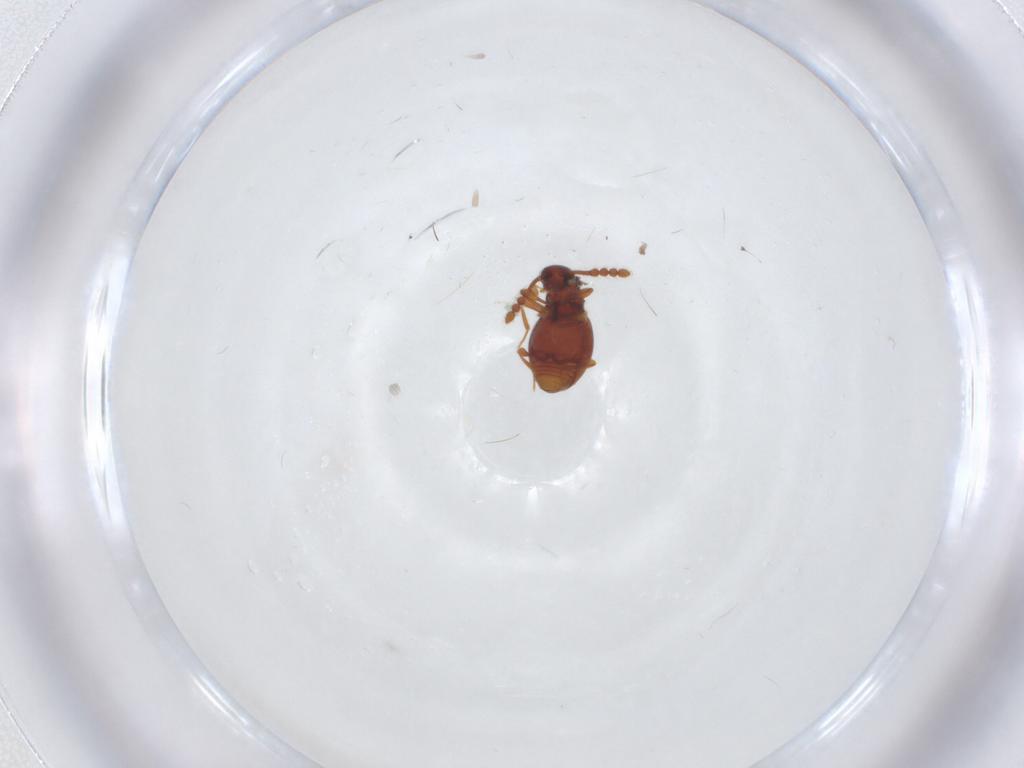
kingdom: Animalia
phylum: Arthropoda
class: Insecta
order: Coleoptera
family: Staphylinidae
